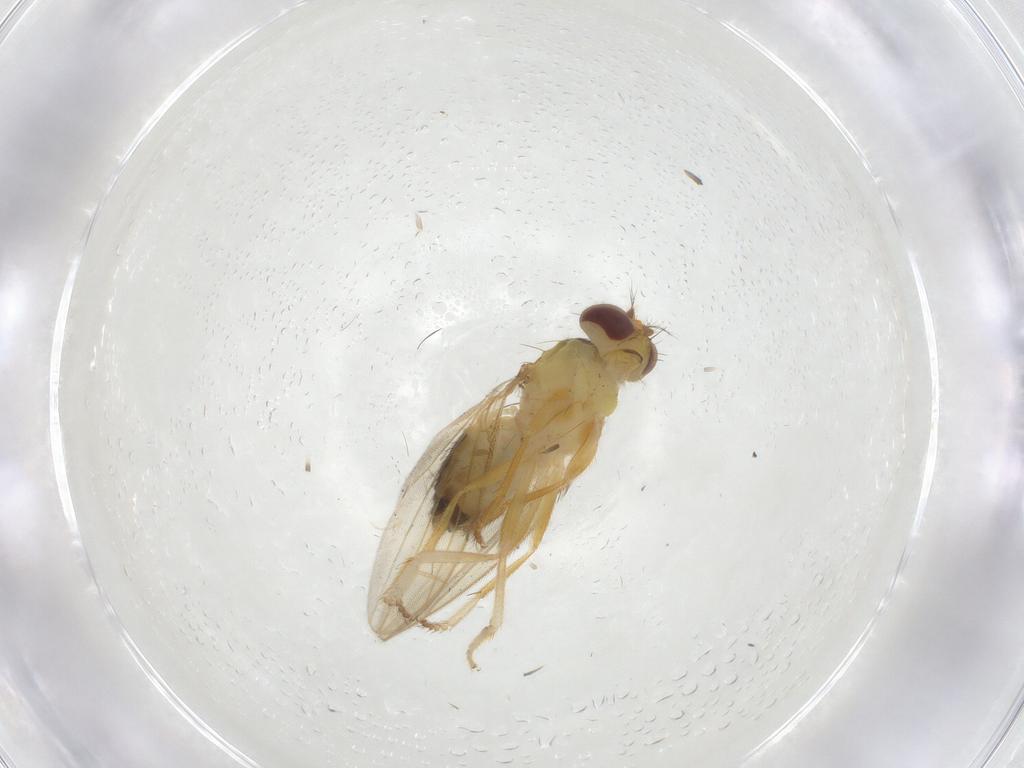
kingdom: Animalia
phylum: Arthropoda
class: Insecta
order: Diptera
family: Periscelididae
